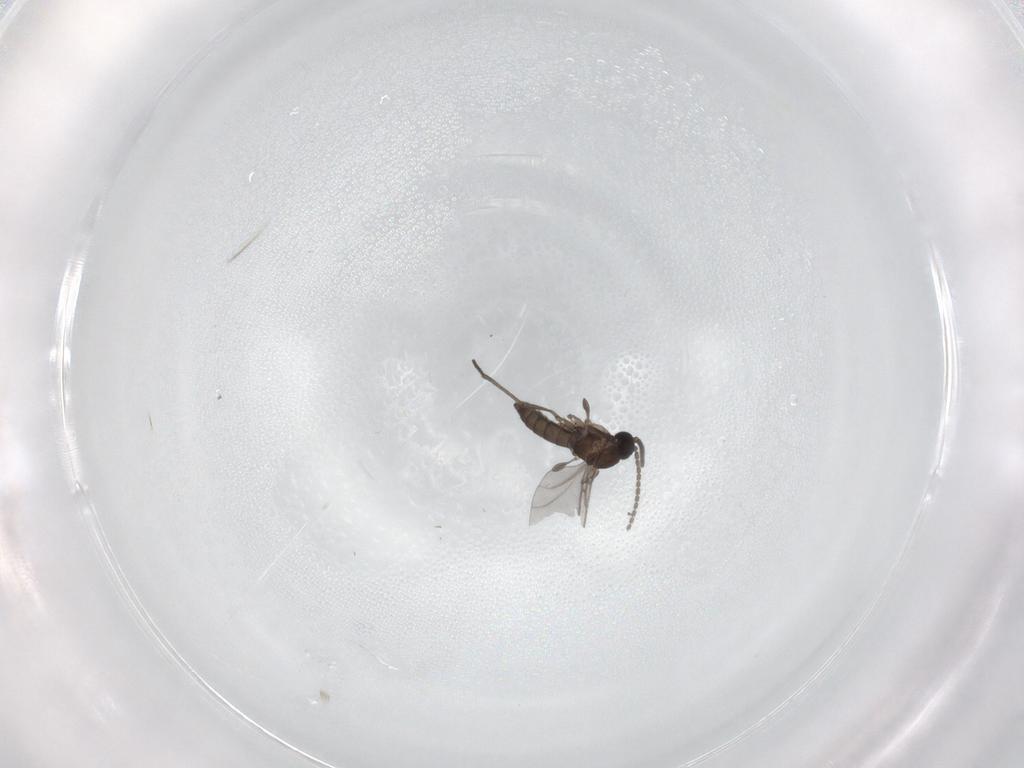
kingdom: Animalia
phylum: Arthropoda
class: Insecta
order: Diptera
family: Sciaridae
